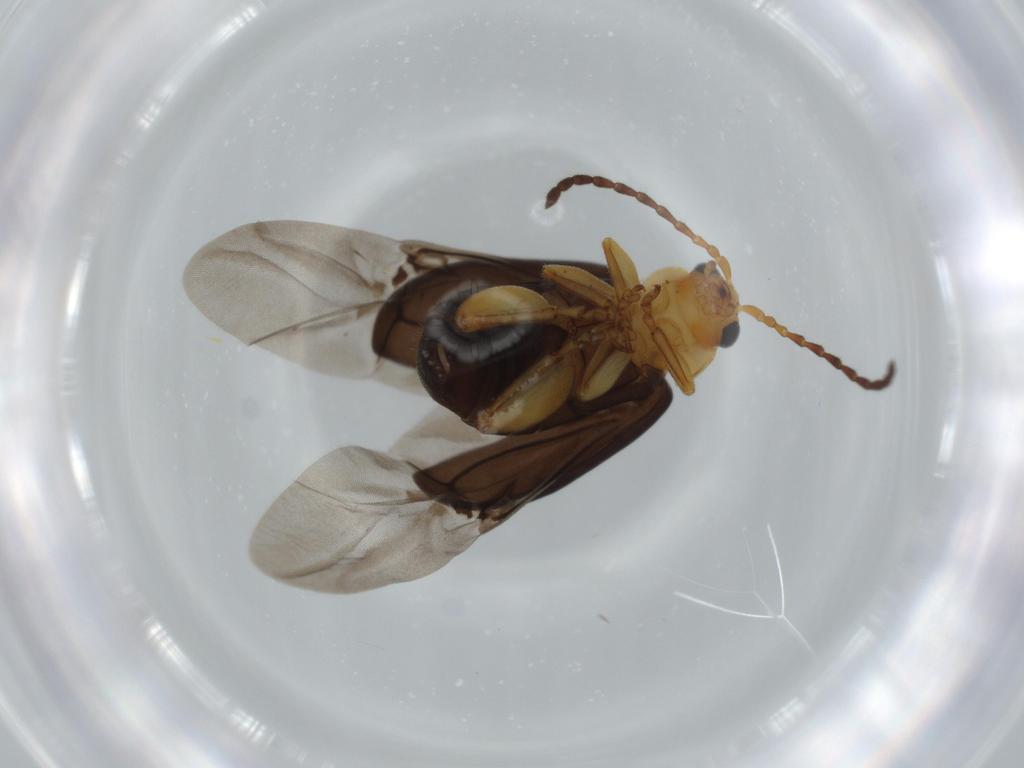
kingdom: Animalia
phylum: Arthropoda
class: Insecta
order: Coleoptera
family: Chrysomelidae
